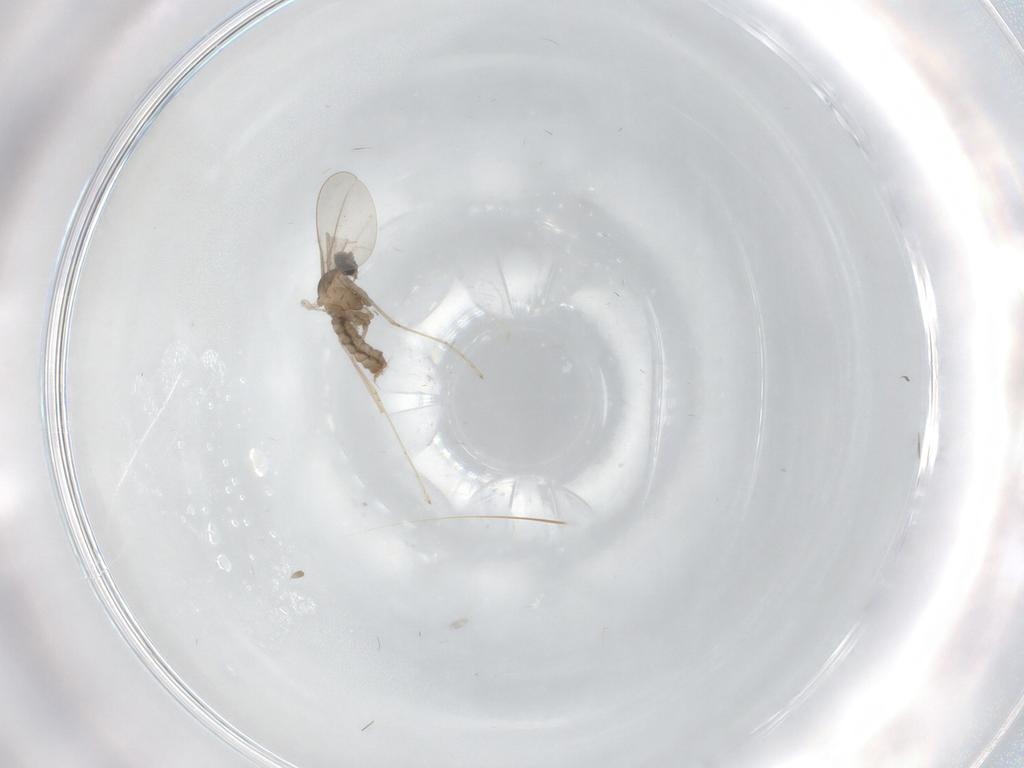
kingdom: Animalia
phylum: Arthropoda
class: Insecta
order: Diptera
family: Cecidomyiidae
